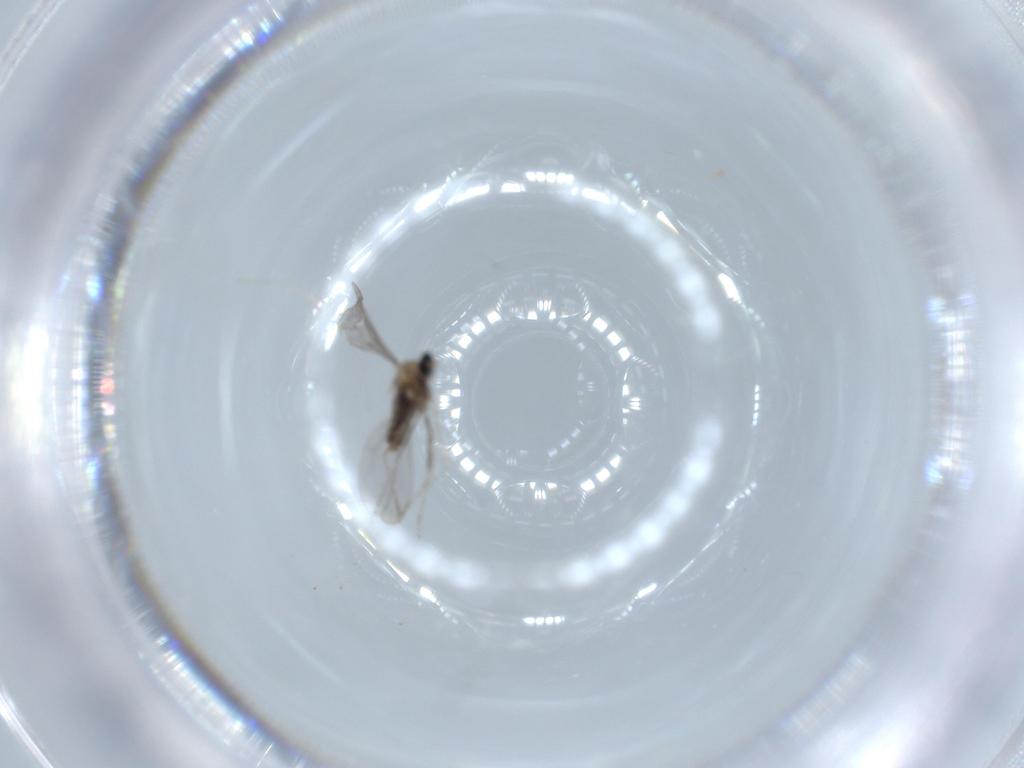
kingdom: Animalia
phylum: Arthropoda
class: Insecta
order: Diptera
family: Cecidomyiidae
